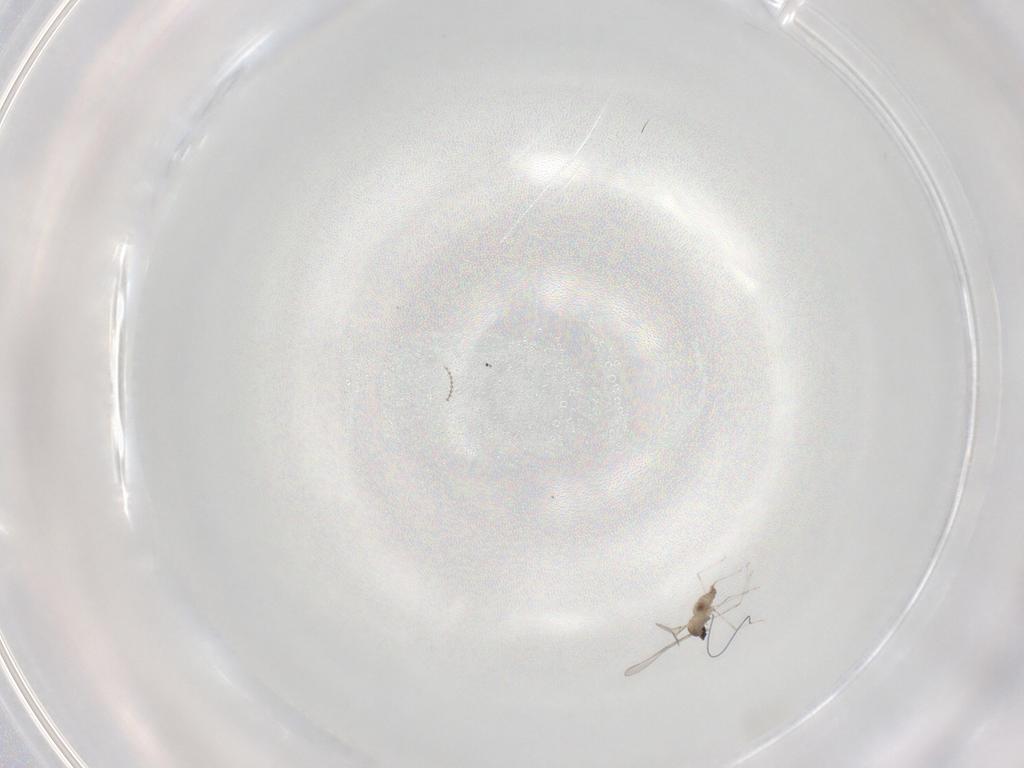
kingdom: Animalia
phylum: Arthropoda
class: Insecta
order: Diptera
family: Cecidomyiidae
